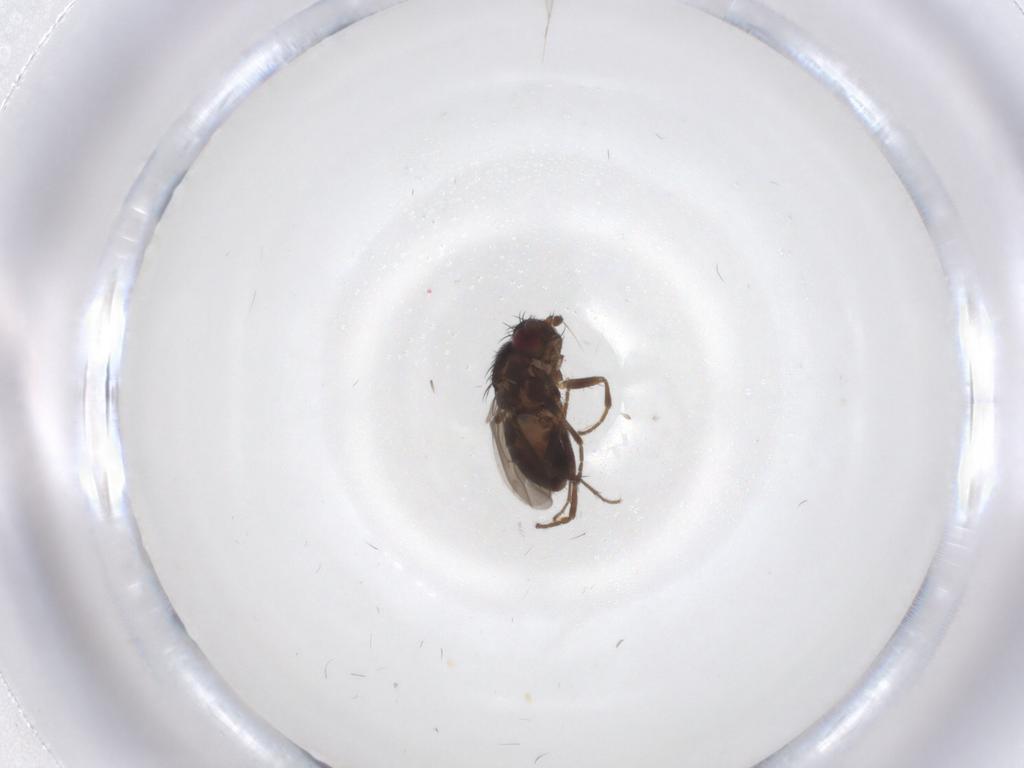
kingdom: Animalia
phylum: Arthropoda
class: Insecta
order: Diptera
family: Sphaeroceridae
